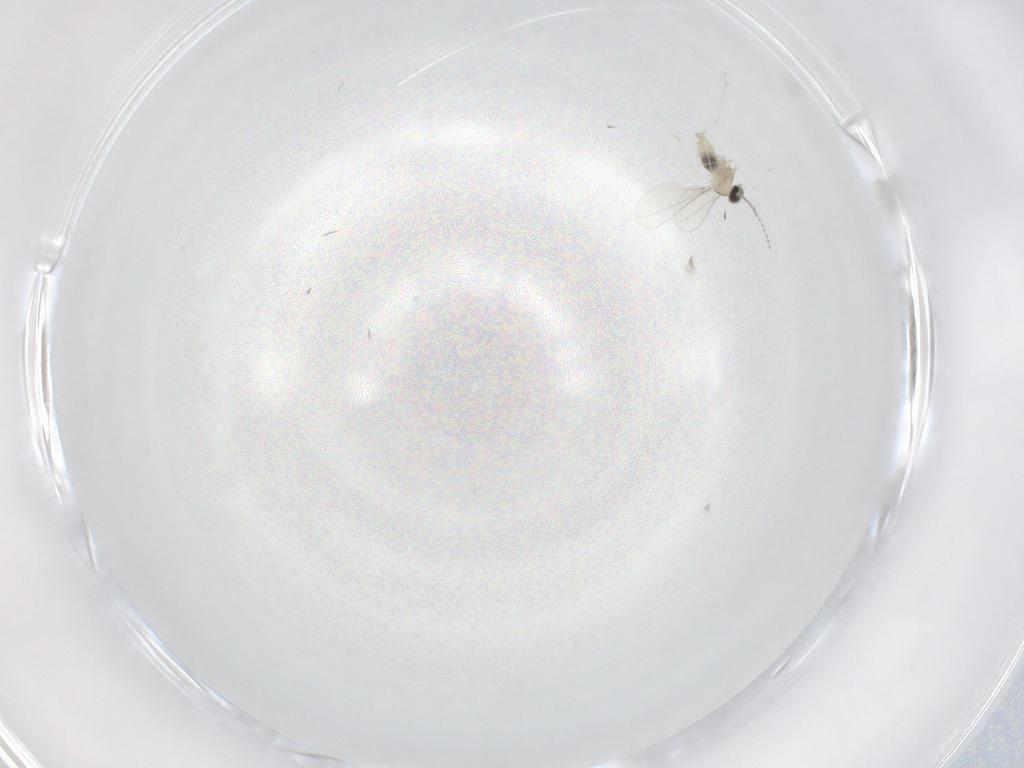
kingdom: Animalia
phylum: Arthropoda
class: Insecta
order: Diptera
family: Cecidomyiidae
